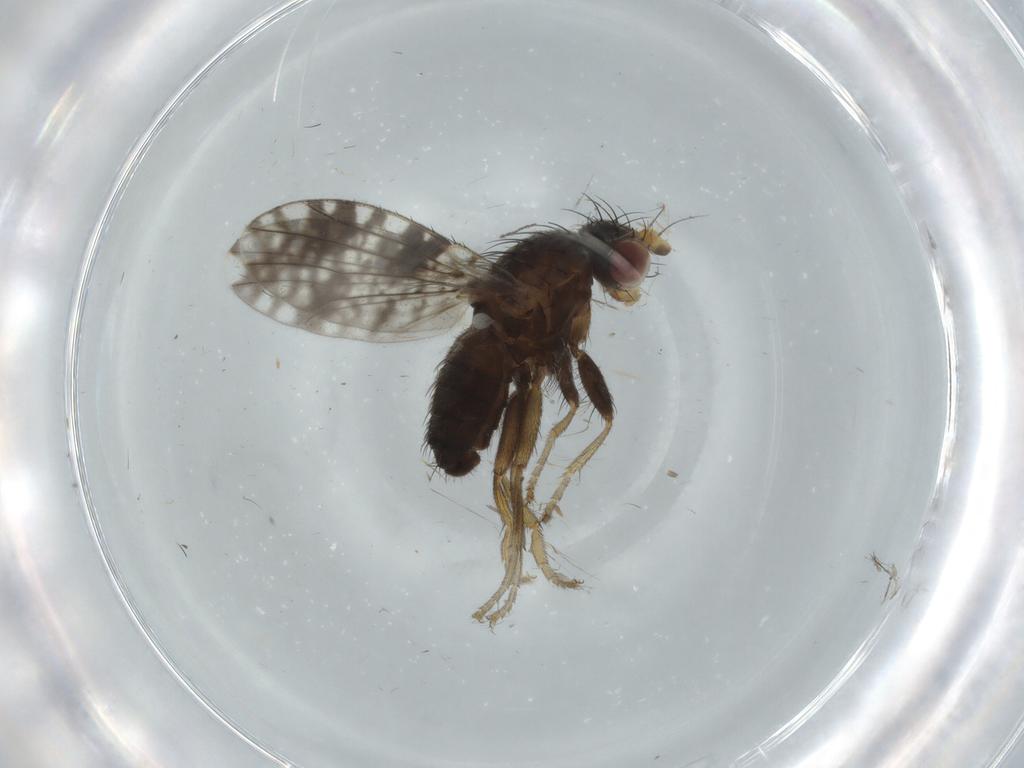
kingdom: Animalia
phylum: Arthropoda
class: Insecta
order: Diptera
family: Tephritidae
